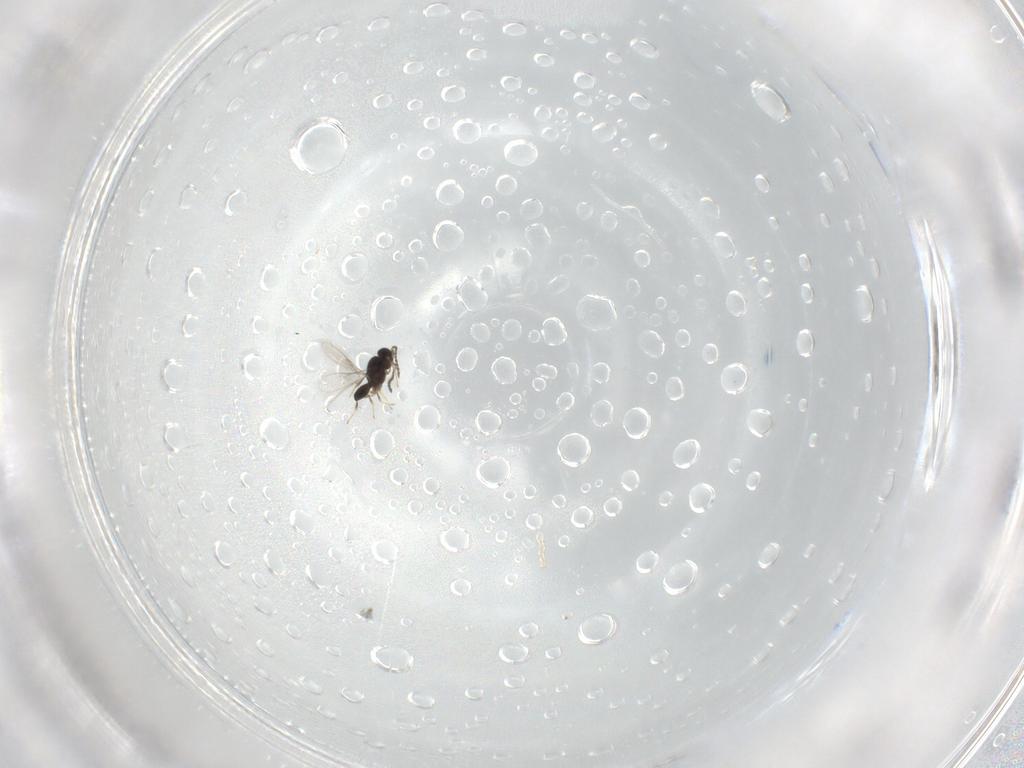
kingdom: Animalia
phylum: Arthropoda
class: Insecta
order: Hymenoptera
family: Scelionidae
